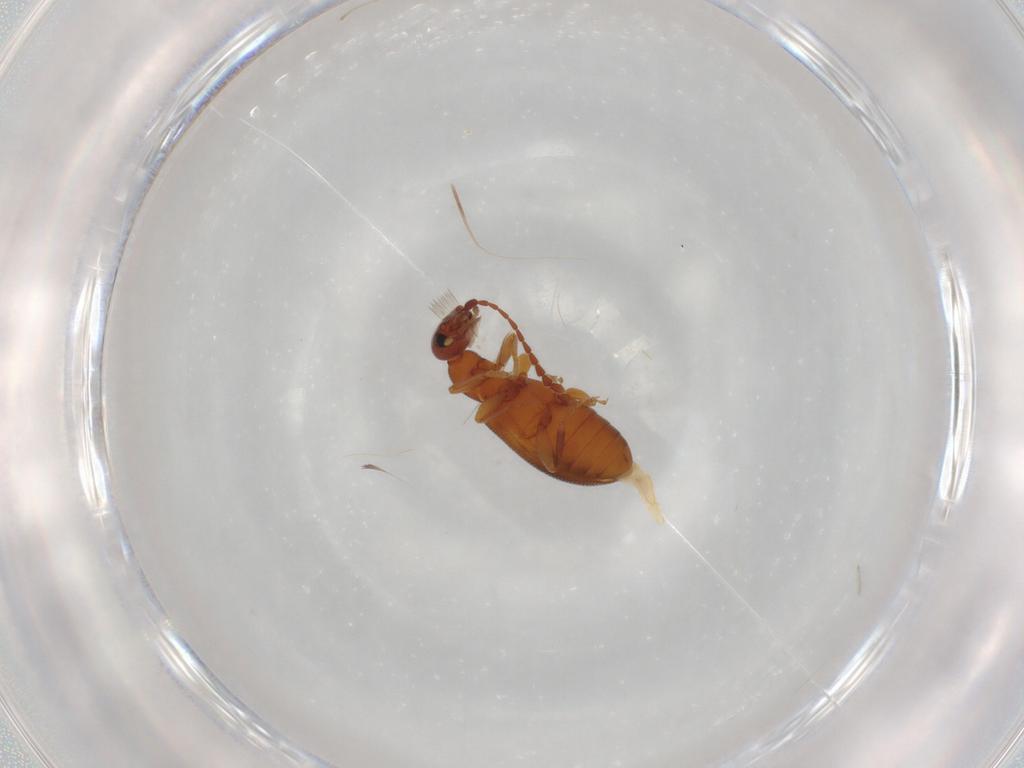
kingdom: Animalia
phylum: Arthropoda
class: Insecta
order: Coleoptera
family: Anthicidae
